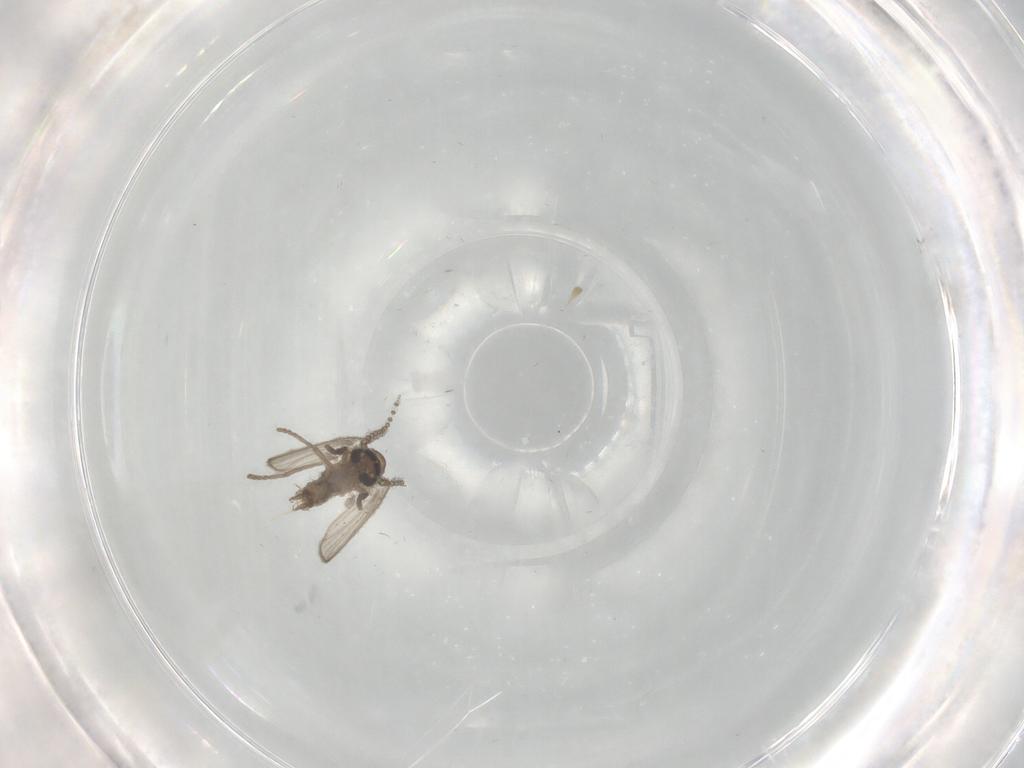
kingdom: Animalia
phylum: Arthropoda
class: Insecta
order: Diptera
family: Psychodidae
